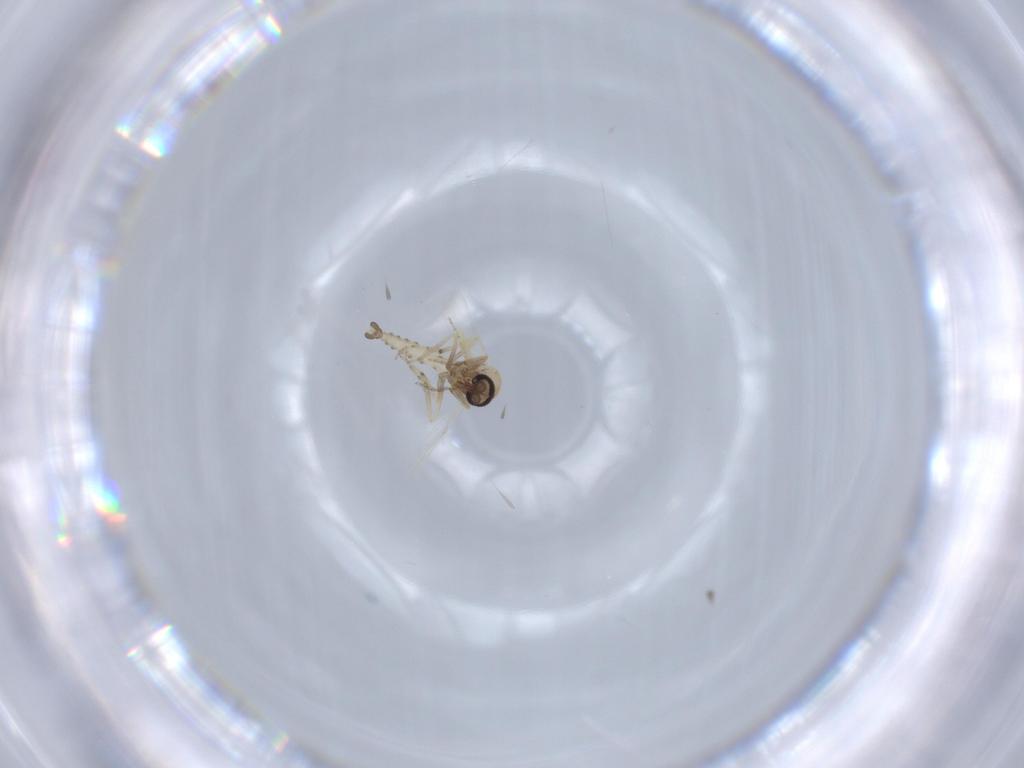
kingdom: Animalia
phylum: Arthropoda
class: Insecta
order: Diptera
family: Ceratopogonidae
